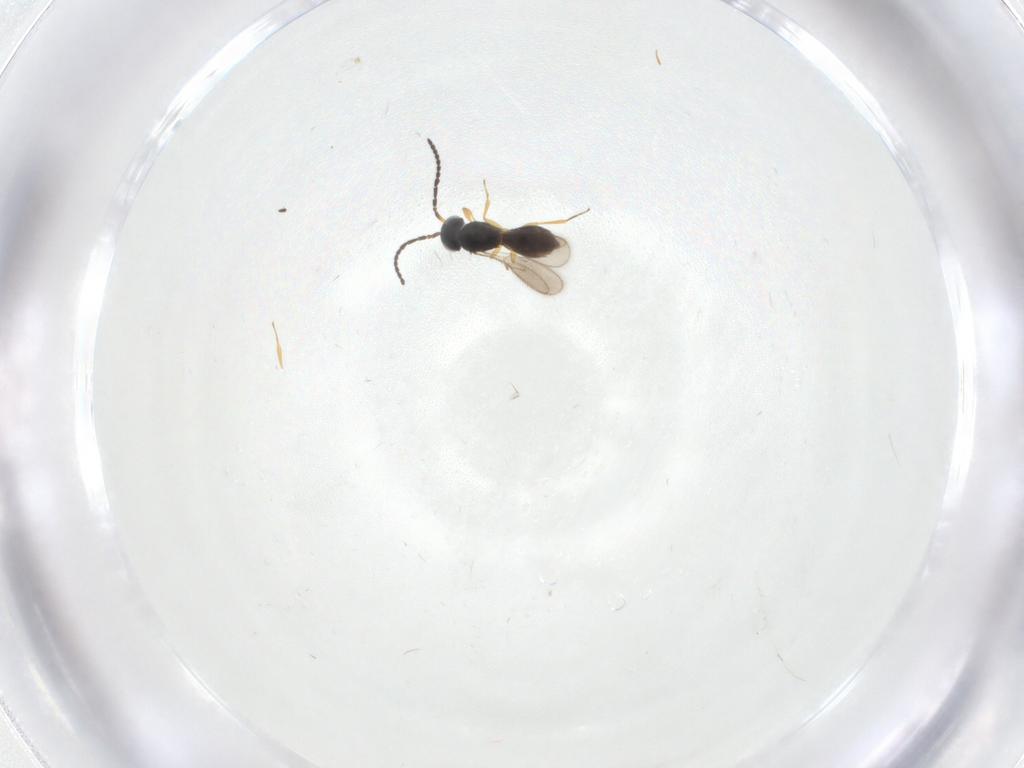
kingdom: Animalia
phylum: Arthropoda
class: Insecta
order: Hymenoptera
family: Scelionidae
